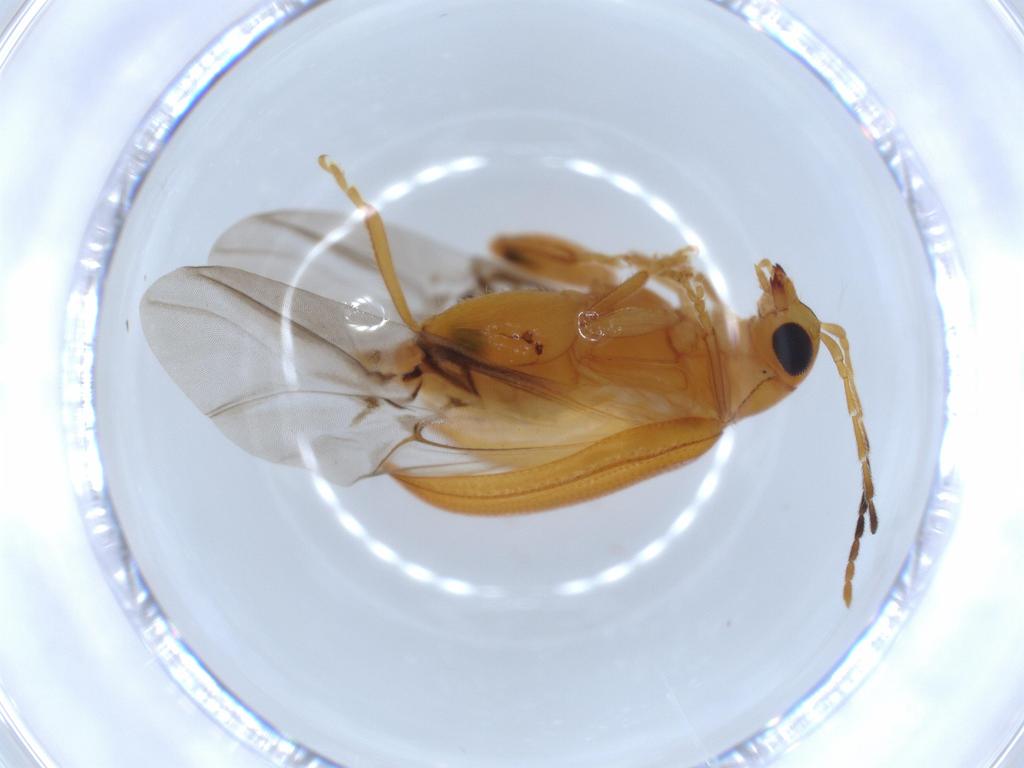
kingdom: Animalia
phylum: Arthropoda
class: Insecta
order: Coleoptera
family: Chrysomelidae
